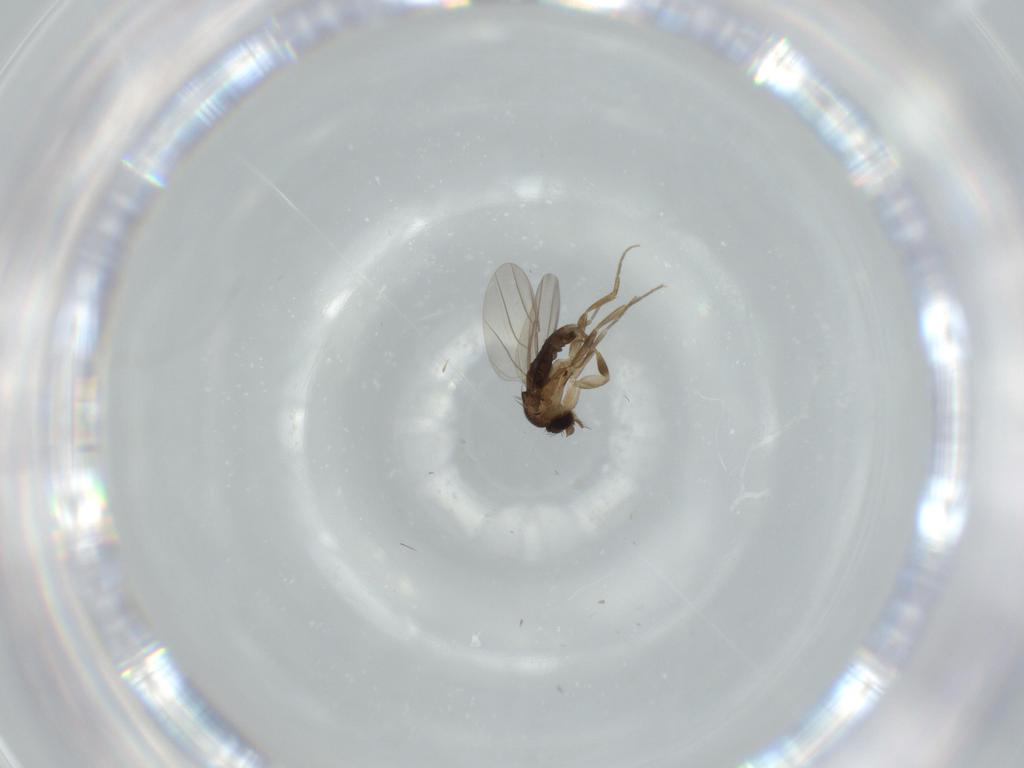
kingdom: Animalia
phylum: Arthropoda
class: Insecta
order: Diptera
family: Phoridae
